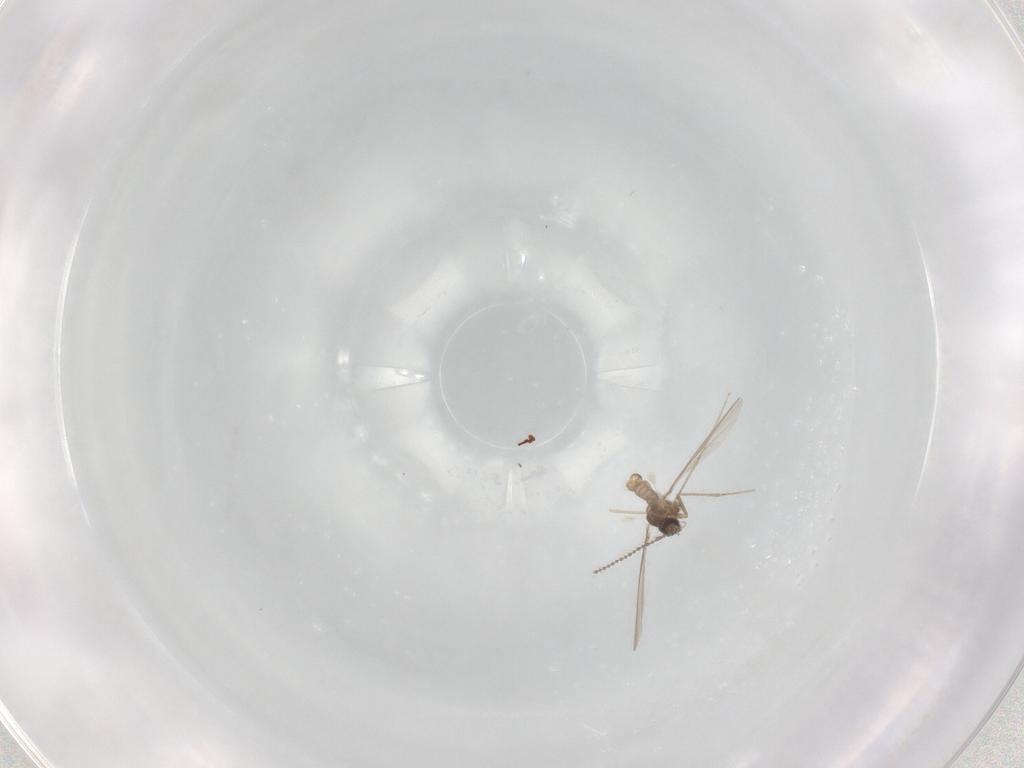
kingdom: Animalia
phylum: Arthropoda
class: Insecta
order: Diptera
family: Cecidomyiidae
